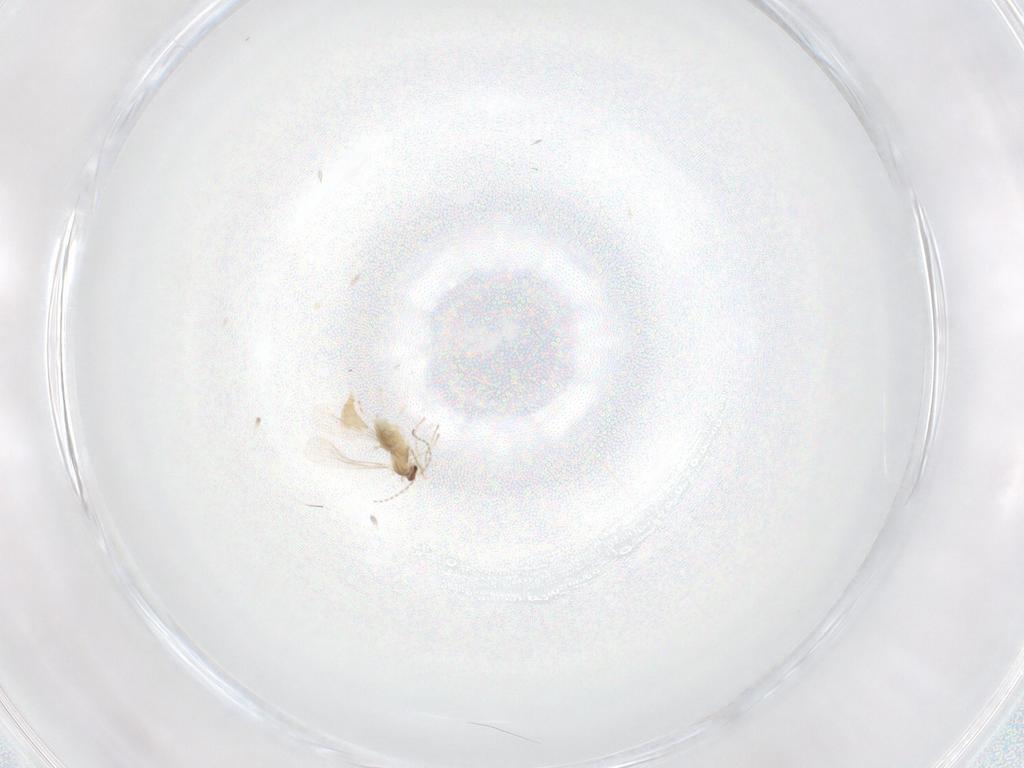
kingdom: Animalia
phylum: Arthropoda
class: Insecta
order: Diptera
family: Cecidomyiidae
